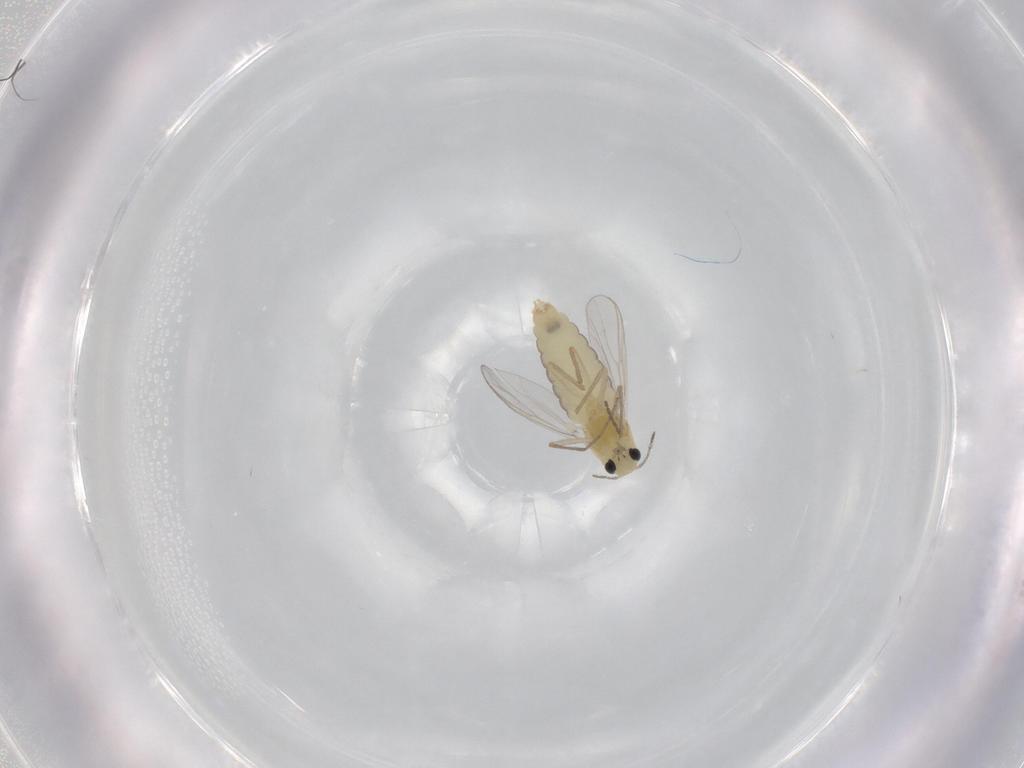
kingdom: Animalia
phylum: Arthropoda
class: Insecta
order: Diptera
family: Chironomidae
